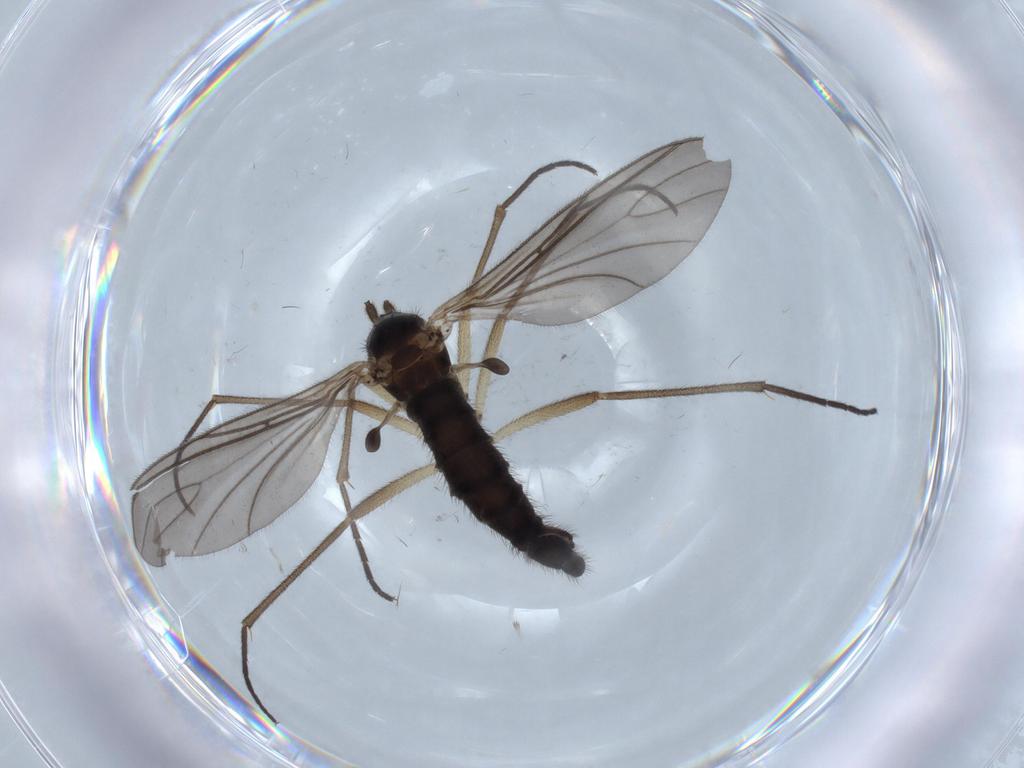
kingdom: Animalia
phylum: Arthropoda
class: Insecta
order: Diptera
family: Sciaridae
